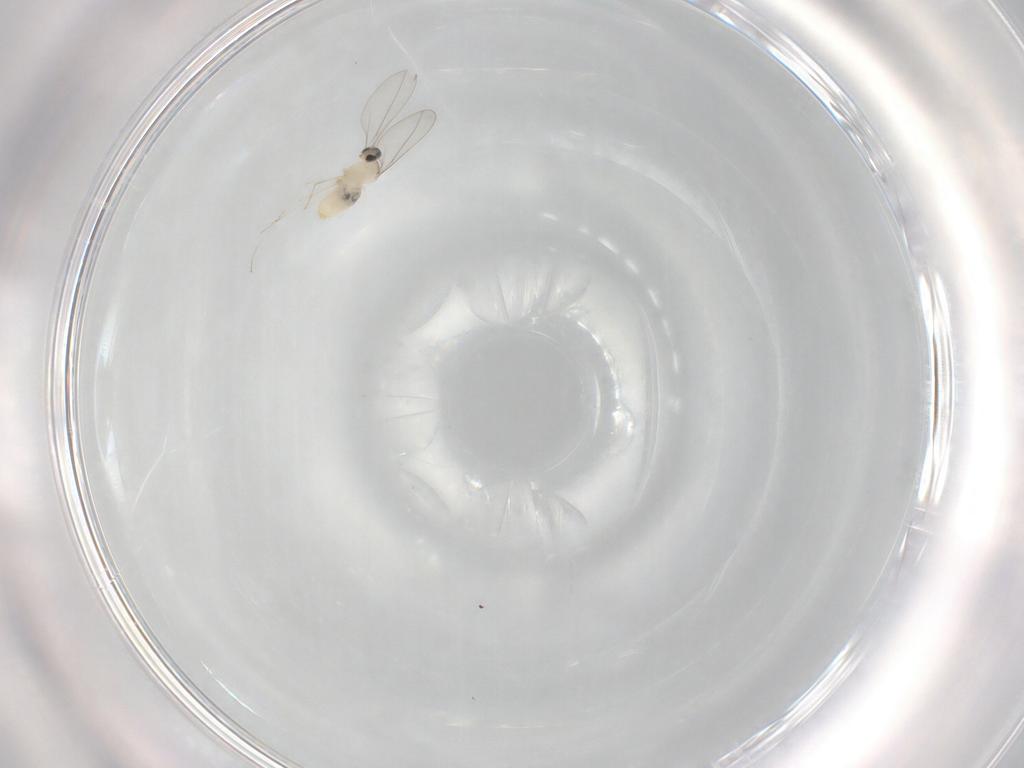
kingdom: Animalia
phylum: Arthropoda
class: Insecta
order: Diptera
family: Cecidomyiidae
